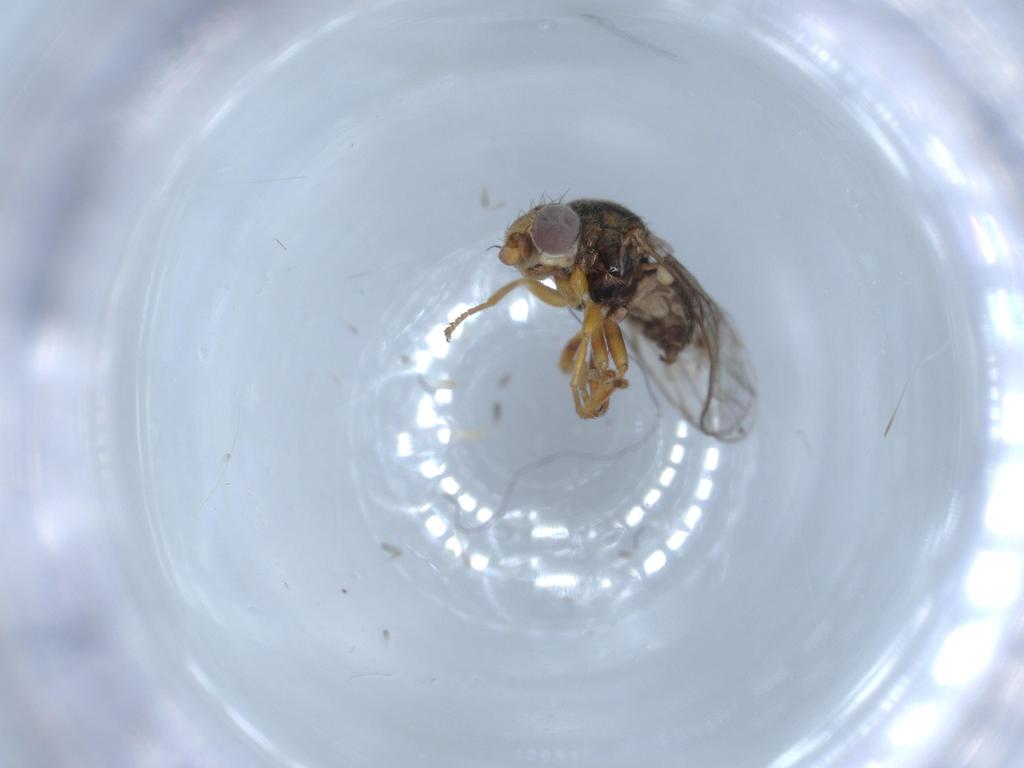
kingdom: Animalia
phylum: Arthropoda
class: Insecta
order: Diptera
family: Chloropidae
